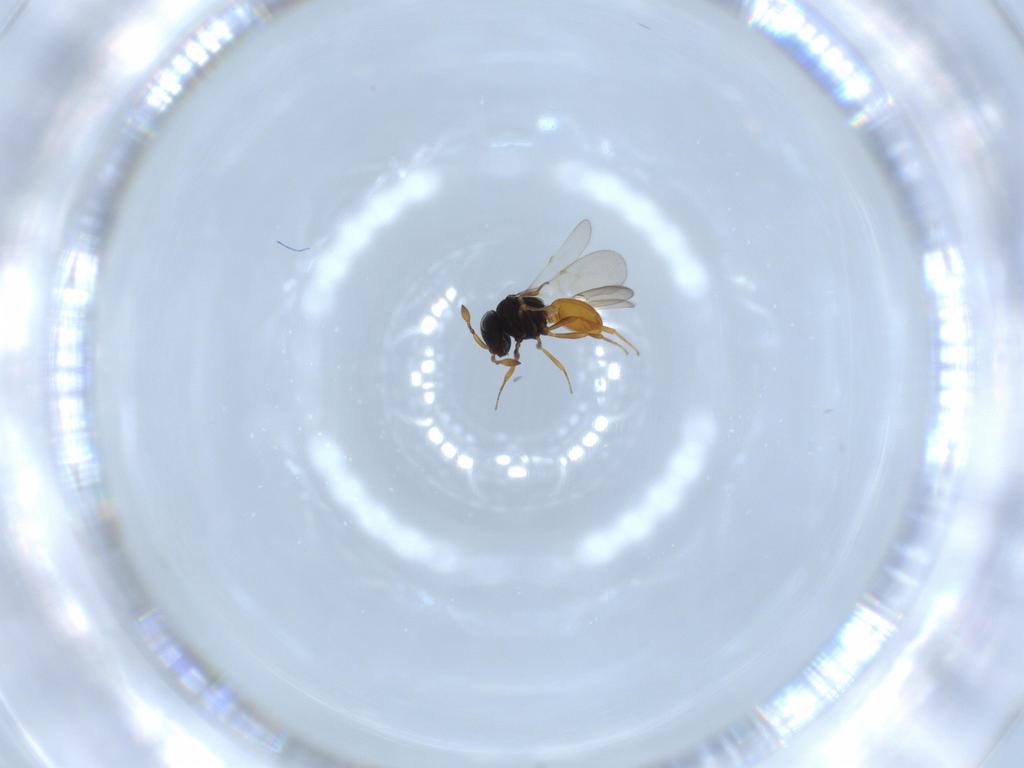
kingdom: Animalia
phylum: Arthropoda
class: Insecta
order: Hymenoptera
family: Scelionidae
